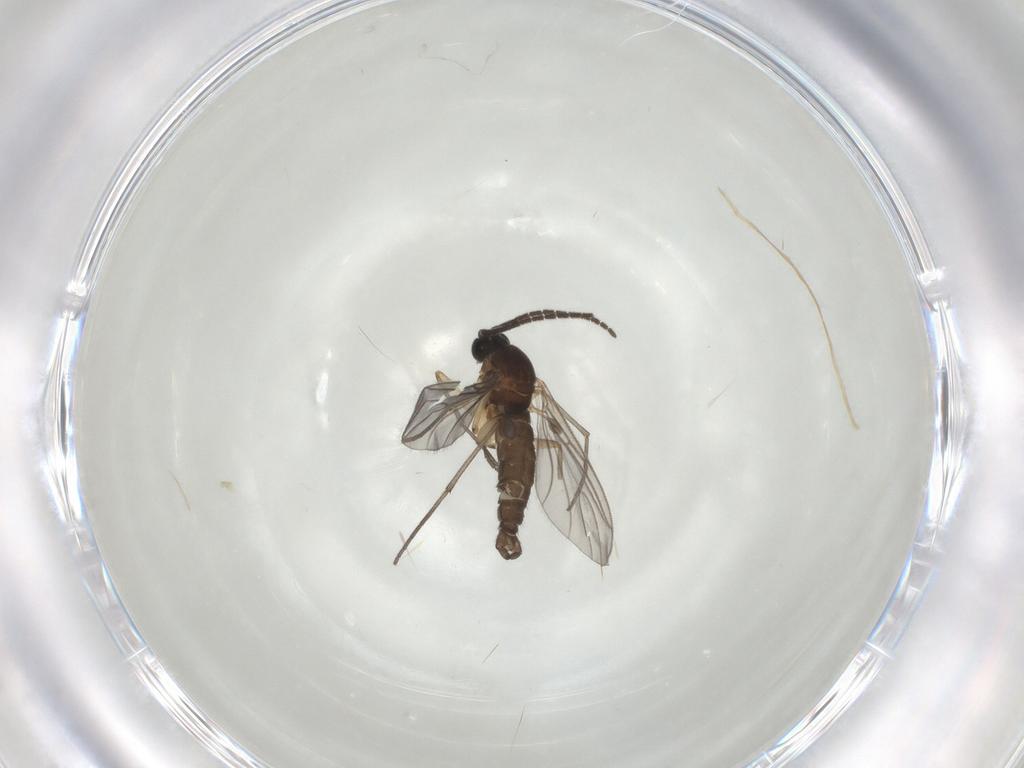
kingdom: Animalia
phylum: Arthropoda
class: Insecta
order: Diptera
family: Sciaridae
